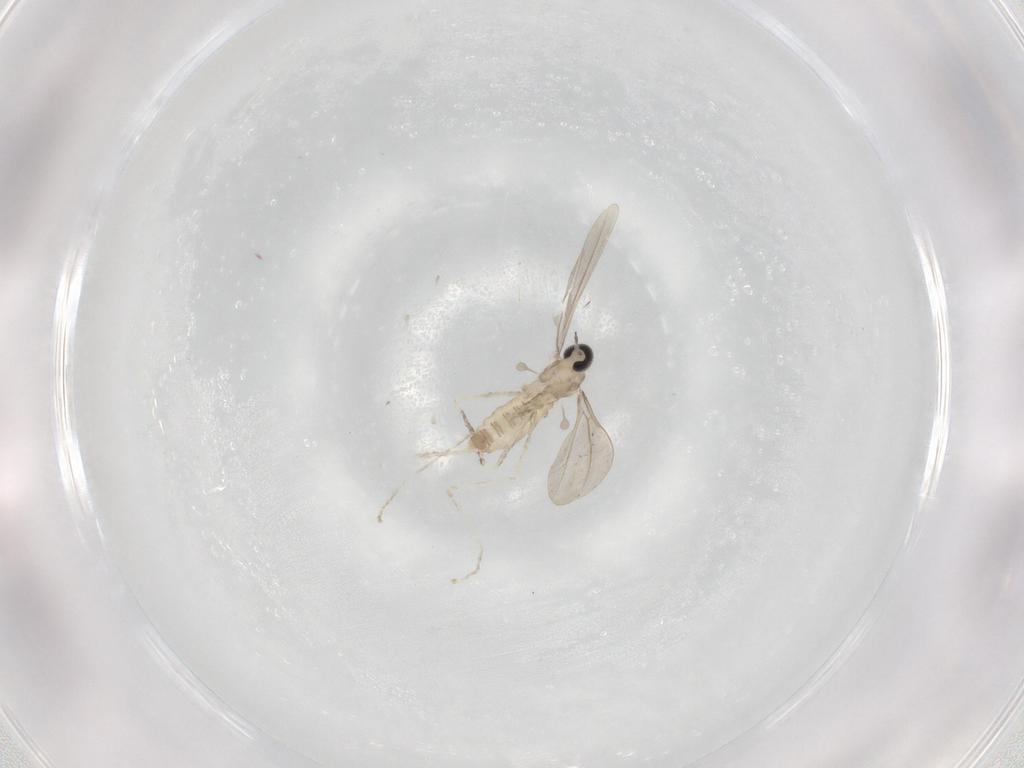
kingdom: Animalia
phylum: Arthropoda
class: Insecta
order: Diptera
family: Cecidomyiidae
